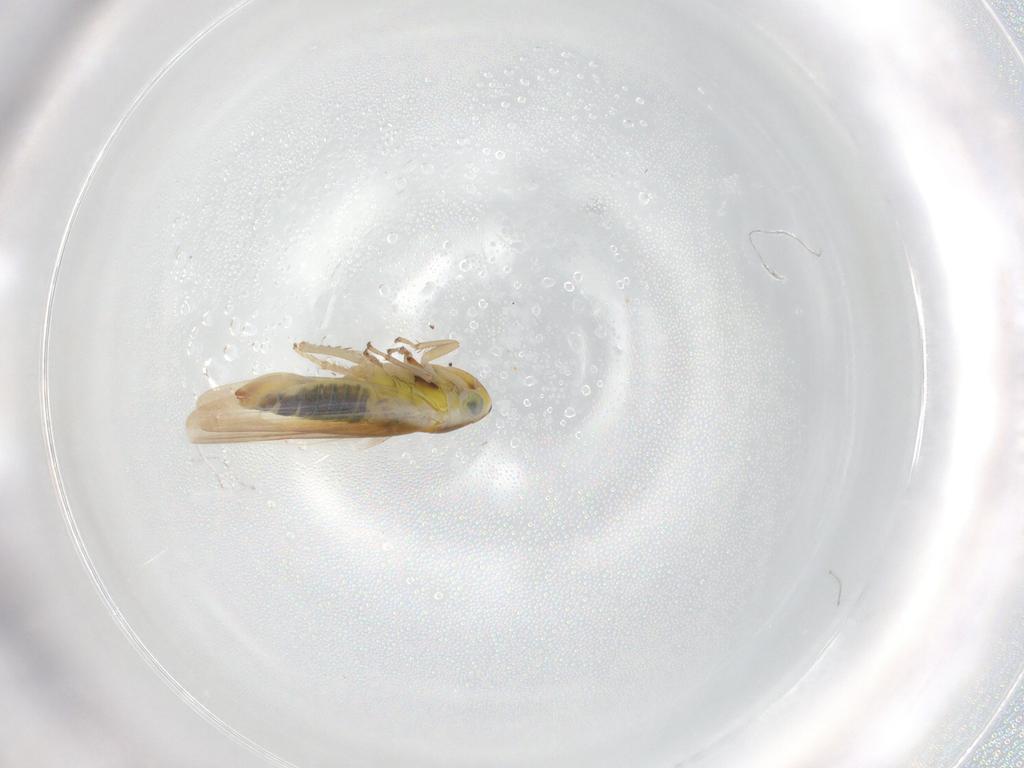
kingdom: Animalia
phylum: Arthropoda
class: Insecta
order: Hemiptera
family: Cicadellidae
